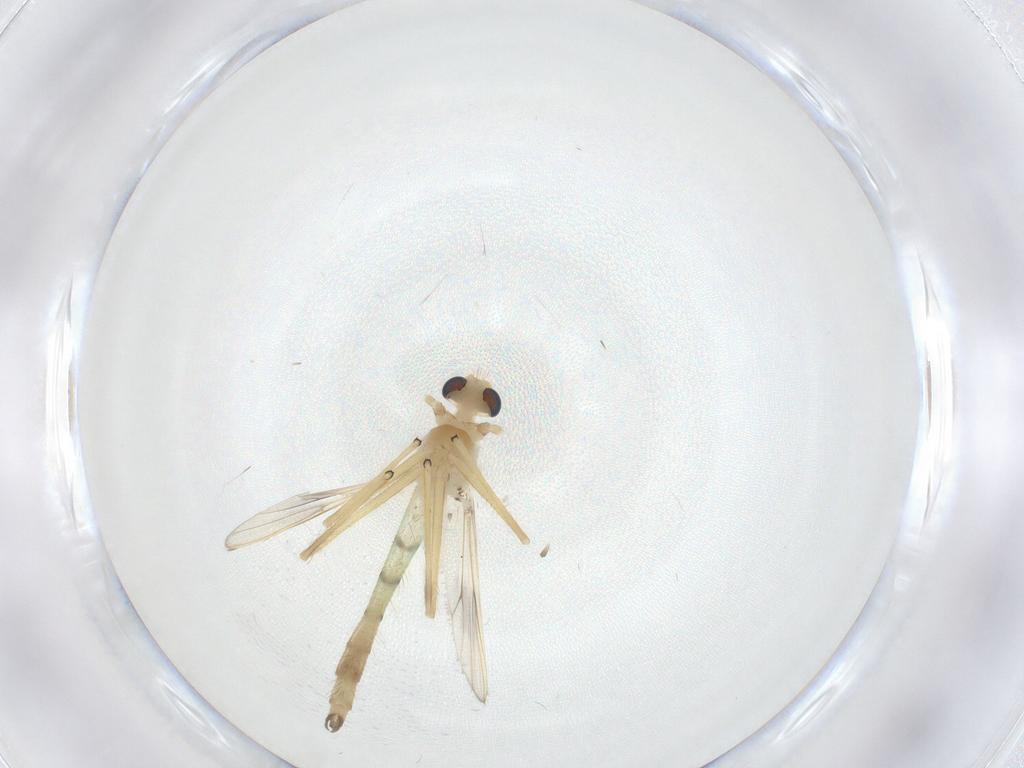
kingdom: Animalia
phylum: Arthropoda
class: Insecta
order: Diptera
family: Chironomidae
